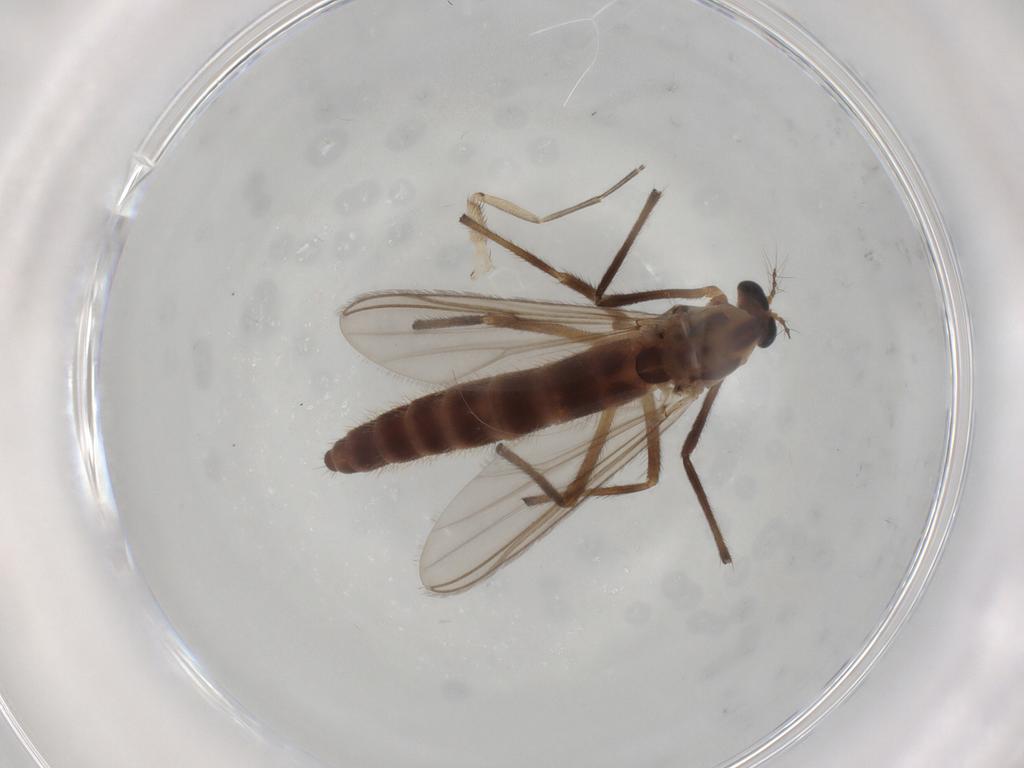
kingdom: Animalia
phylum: Arthropoda
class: Insecta
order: Diptera
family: Chironomidae
